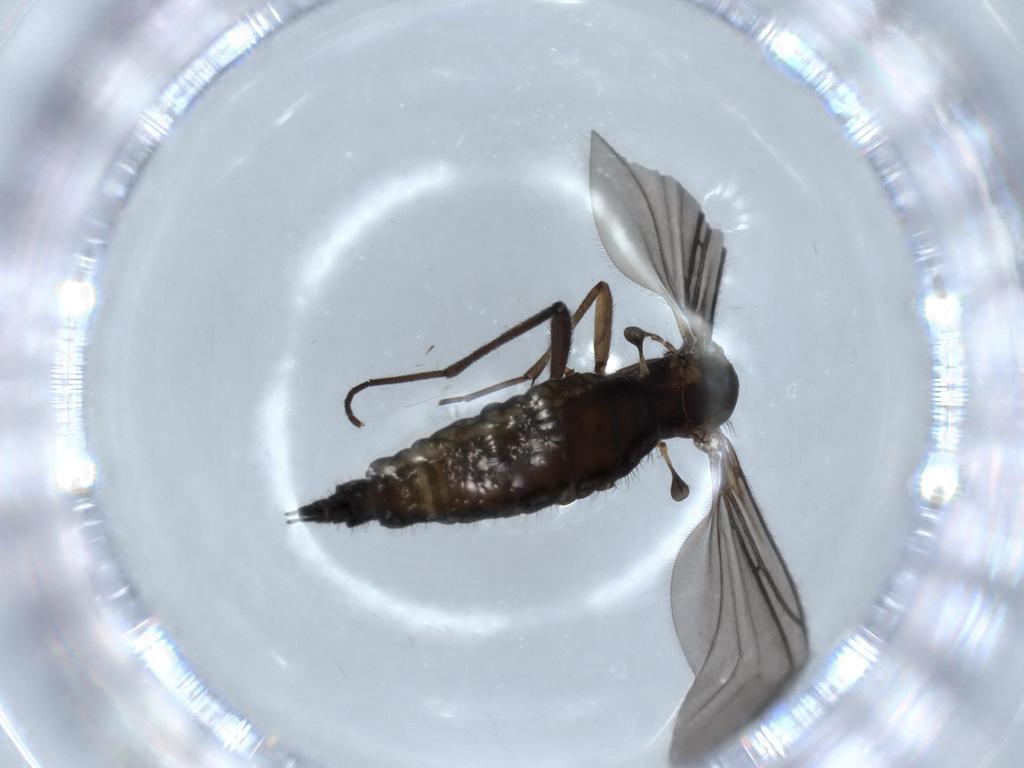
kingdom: Animalia
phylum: Arthropoda
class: Insecta
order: Diptera
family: Sciaridae
